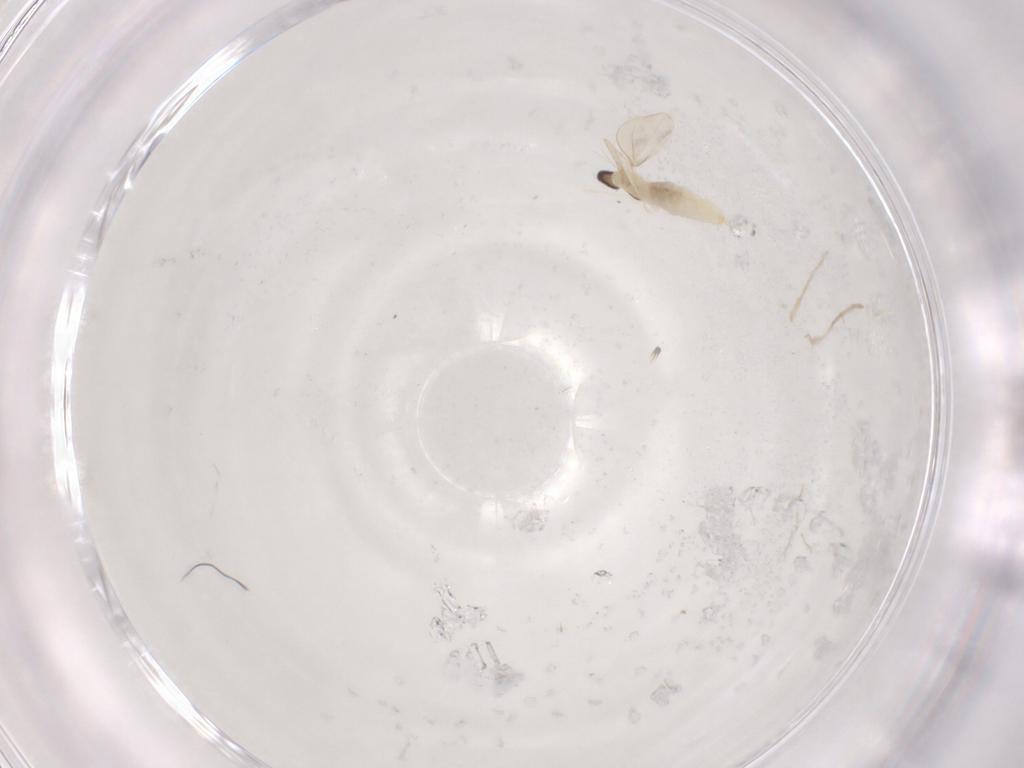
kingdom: Animalia
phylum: Arthropoda
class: Insecta
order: Diptera
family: Cecidomyiidae
